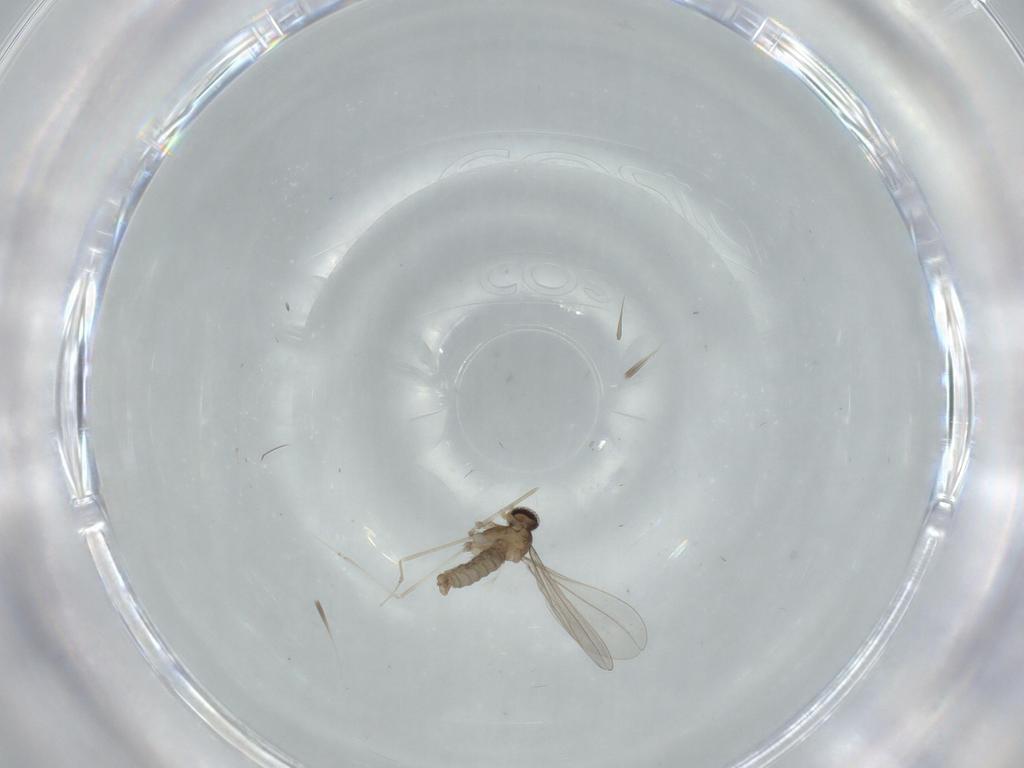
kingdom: Animalia
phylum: Arthropoda
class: Insecta
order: Diptera
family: Cecidomyiidae
